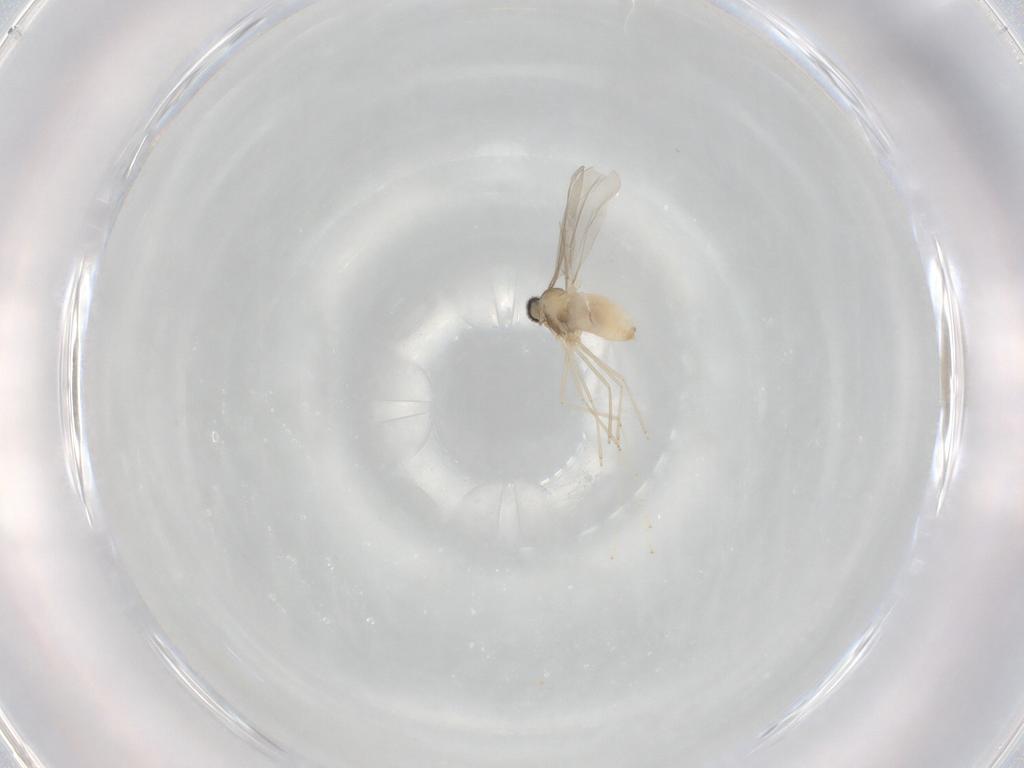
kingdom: Animalia
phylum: Arthropoda
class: Insecta
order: Diptera
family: Cecidomyiidae
